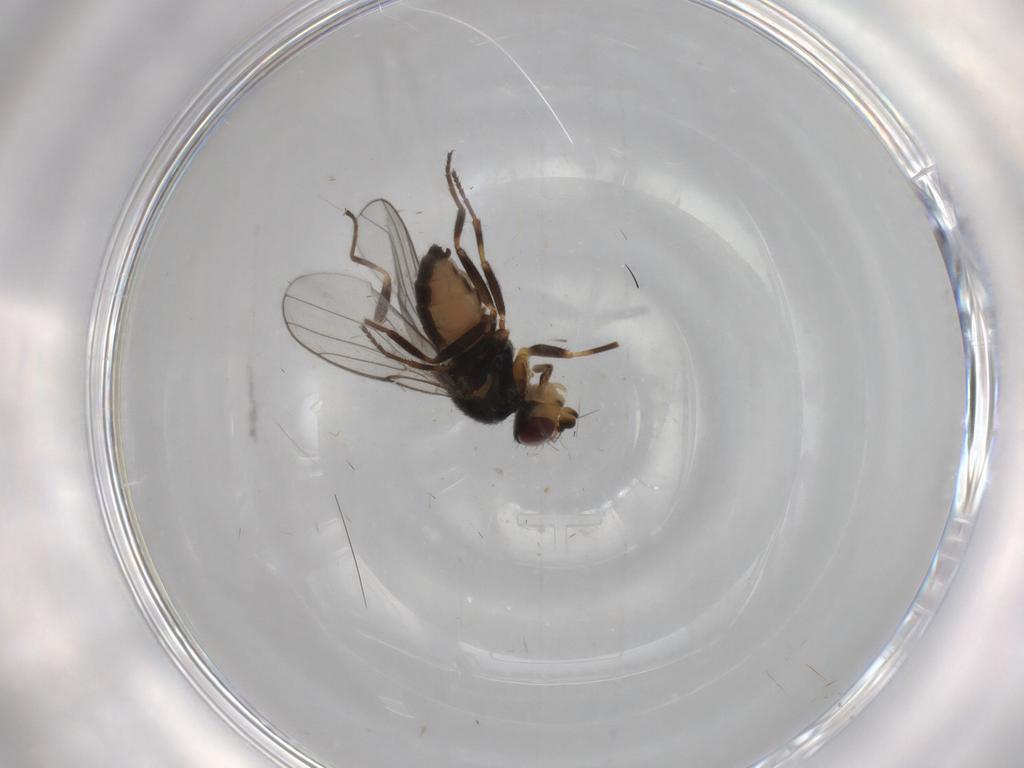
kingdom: Animalia
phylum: Arthropoda
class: Insecta
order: Diptera
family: Chloropidae
